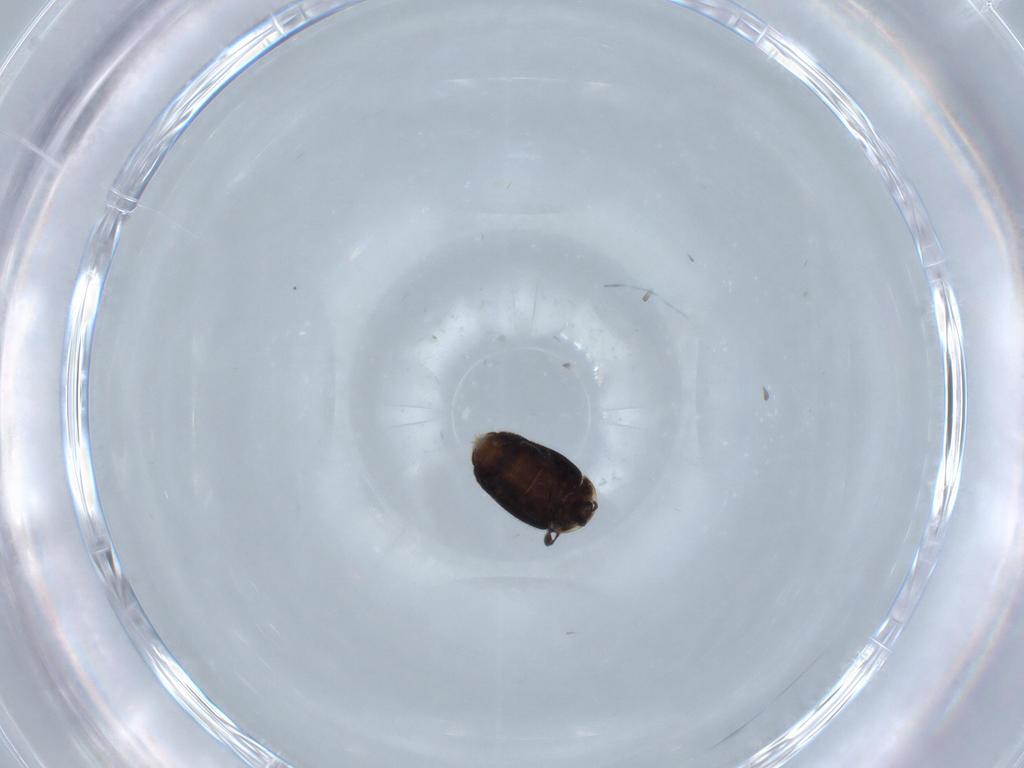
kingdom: Animalia
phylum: Arthropoda
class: Insecta
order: Coleoptera
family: Corylophidae
